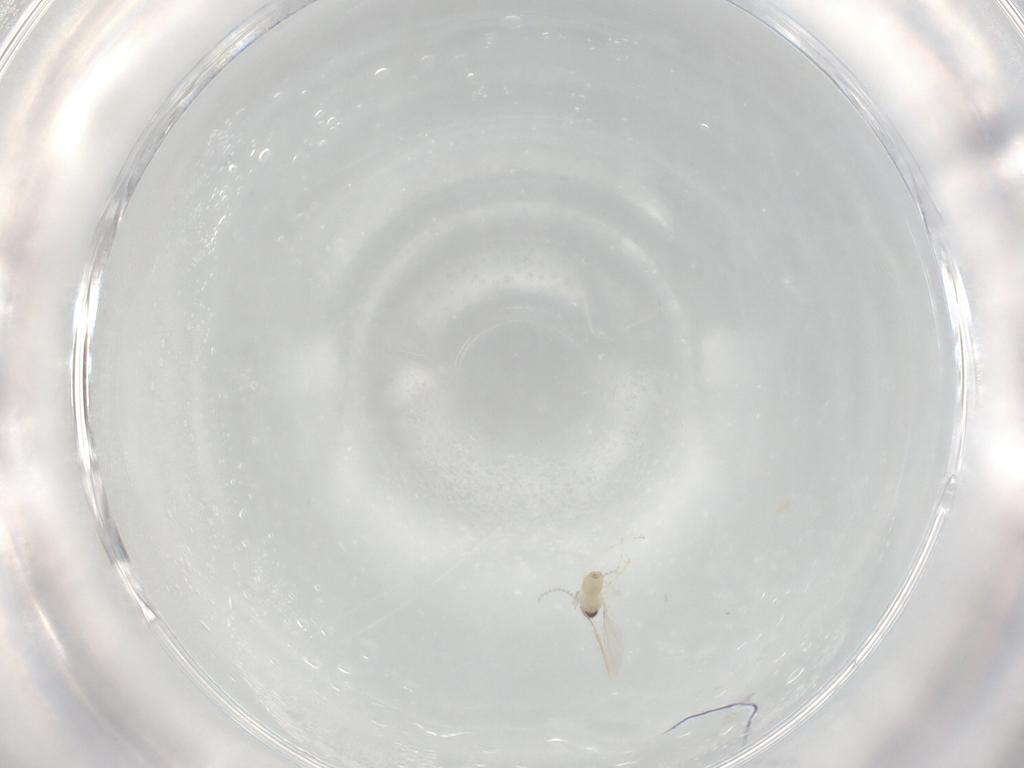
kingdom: Animalia
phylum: Arthropoda
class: Insecta
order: Diptera
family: Cecidomyiidae
